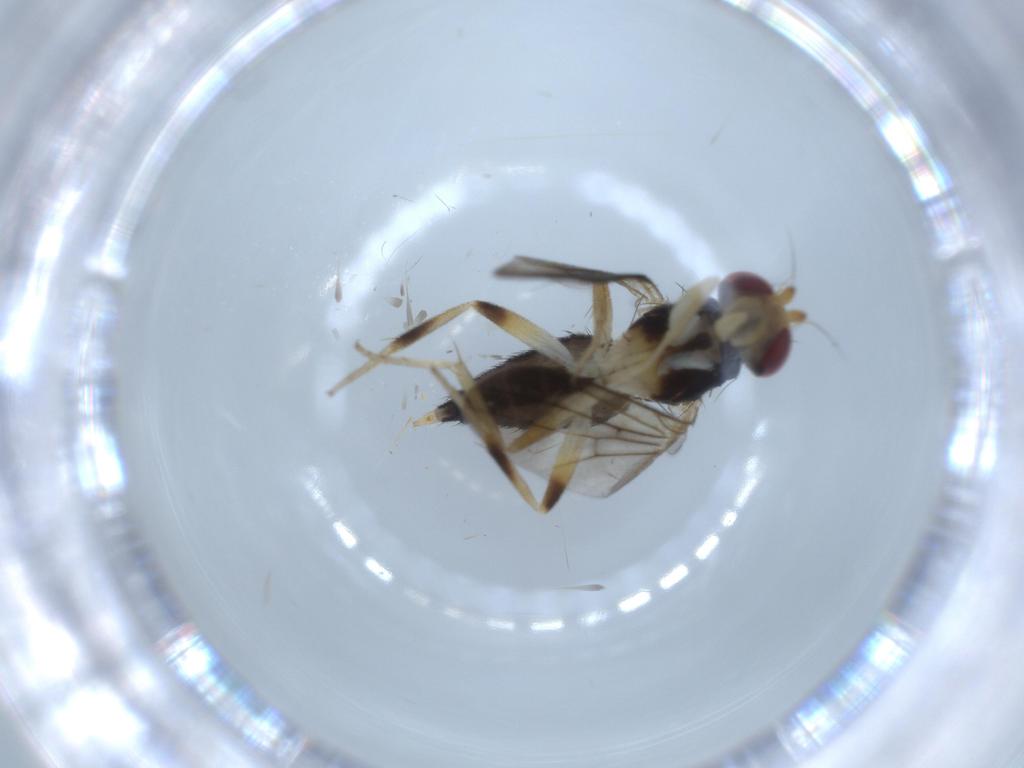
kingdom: Animalia
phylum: Arthropoda
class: Insecta
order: Diptera
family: Clusiidae
